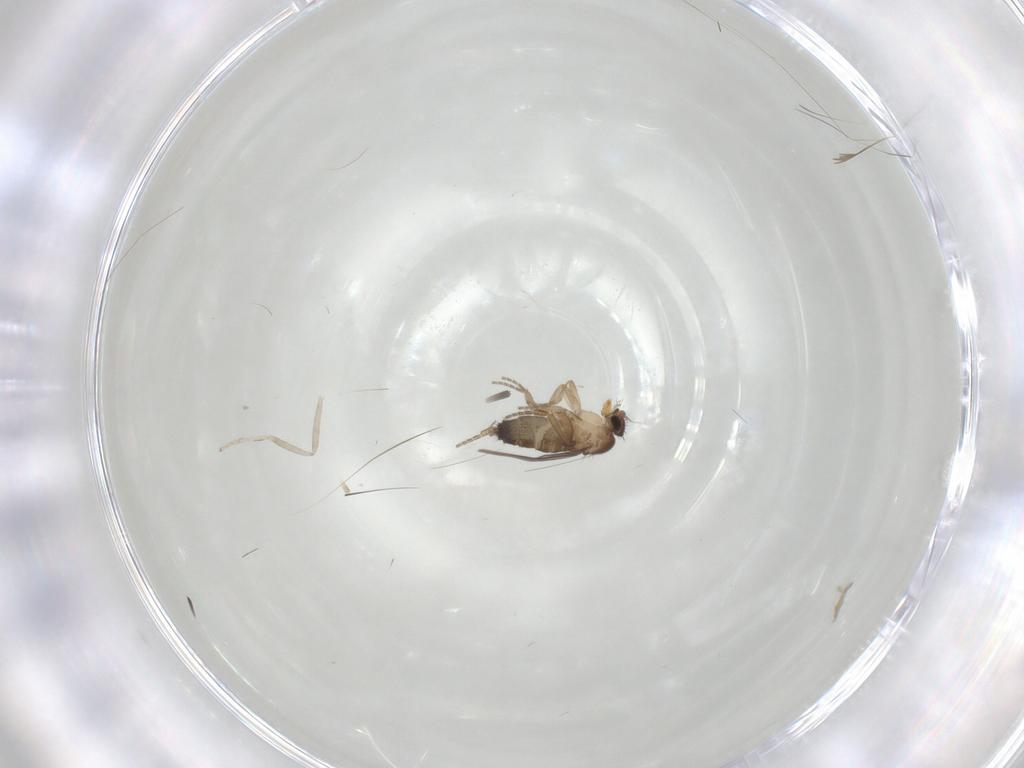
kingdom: Animalia
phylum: Arthropoda
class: Insecta
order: Diptera
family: Cecidomyiidae
